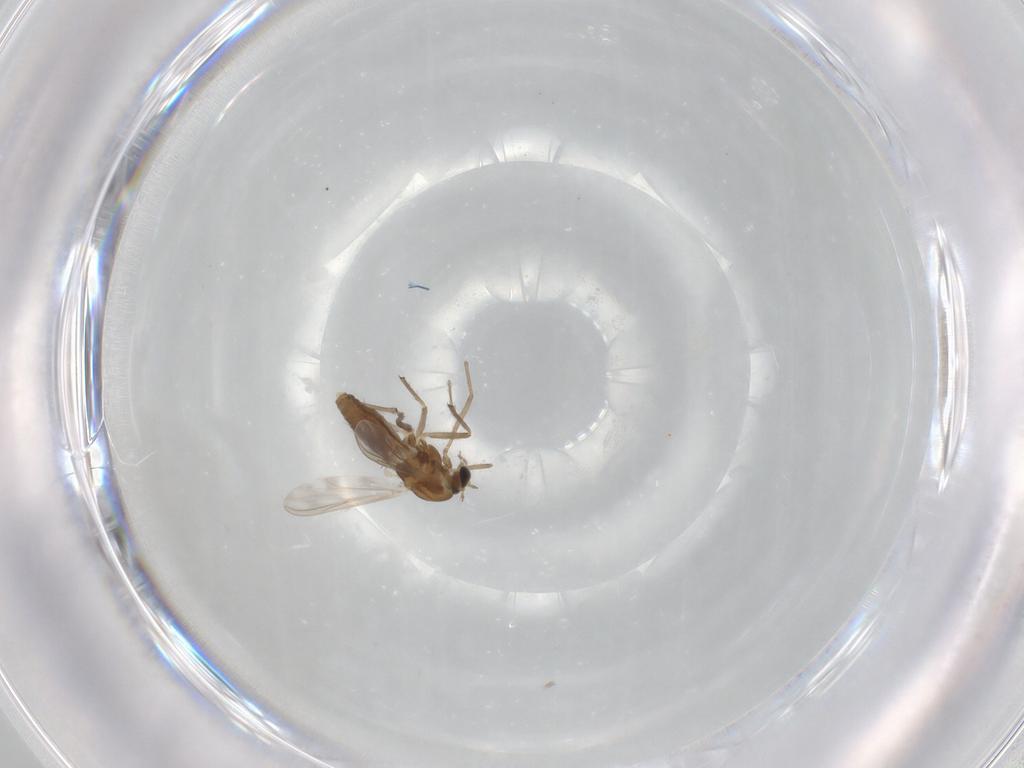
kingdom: Animalia
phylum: Arthropoda
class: Insecta
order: Diptera
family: Chironomidae
